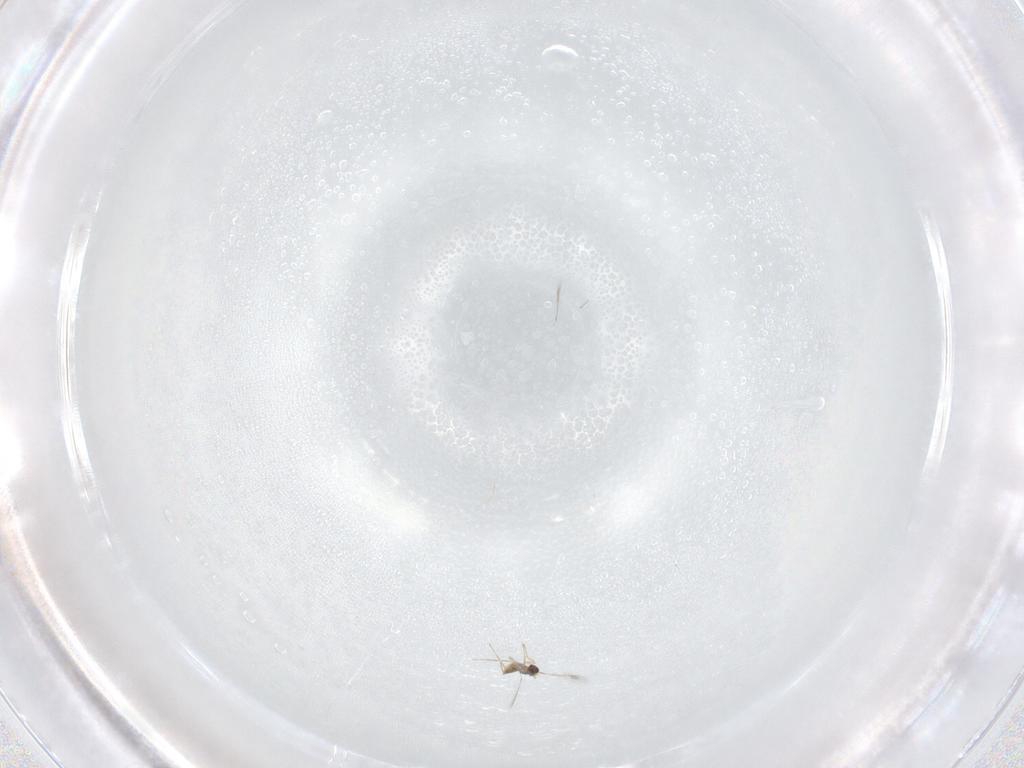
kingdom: Animalia
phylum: Arthropoda
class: Insecta
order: Hymenoptera
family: Mymaridae
